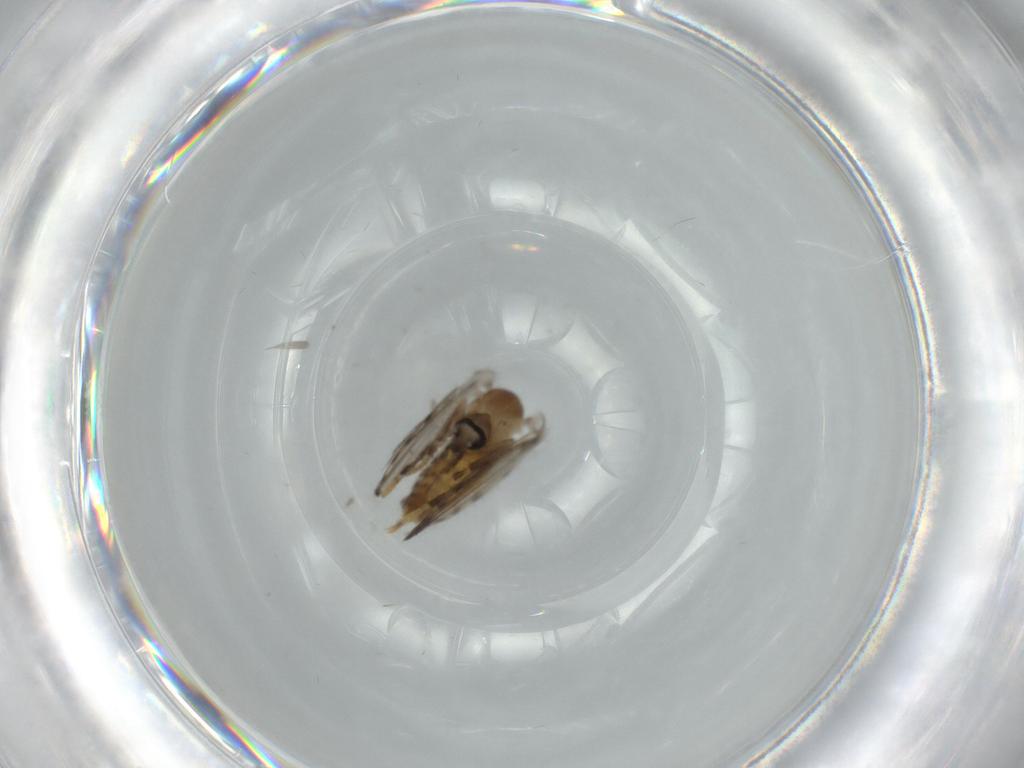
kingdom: Animalia
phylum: Arthropoda
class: Insecta
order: Diptera
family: Psychodidae
